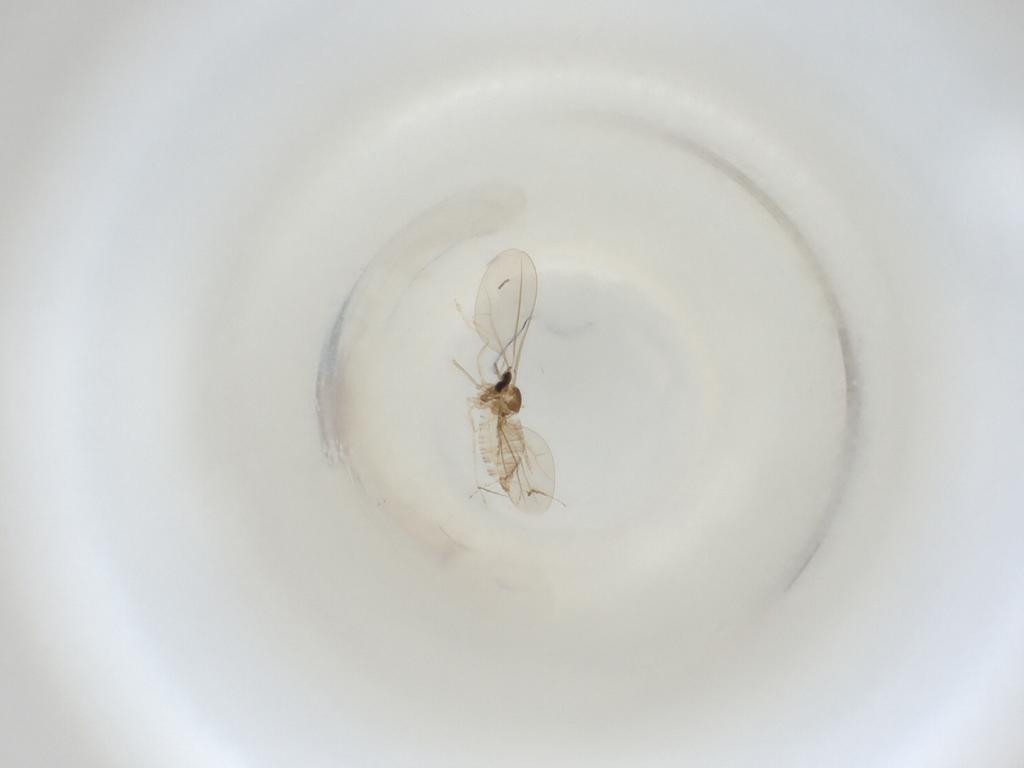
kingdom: Animalia
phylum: Arthropoda
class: Insecta
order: Diptera
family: Cecidomyiidae
